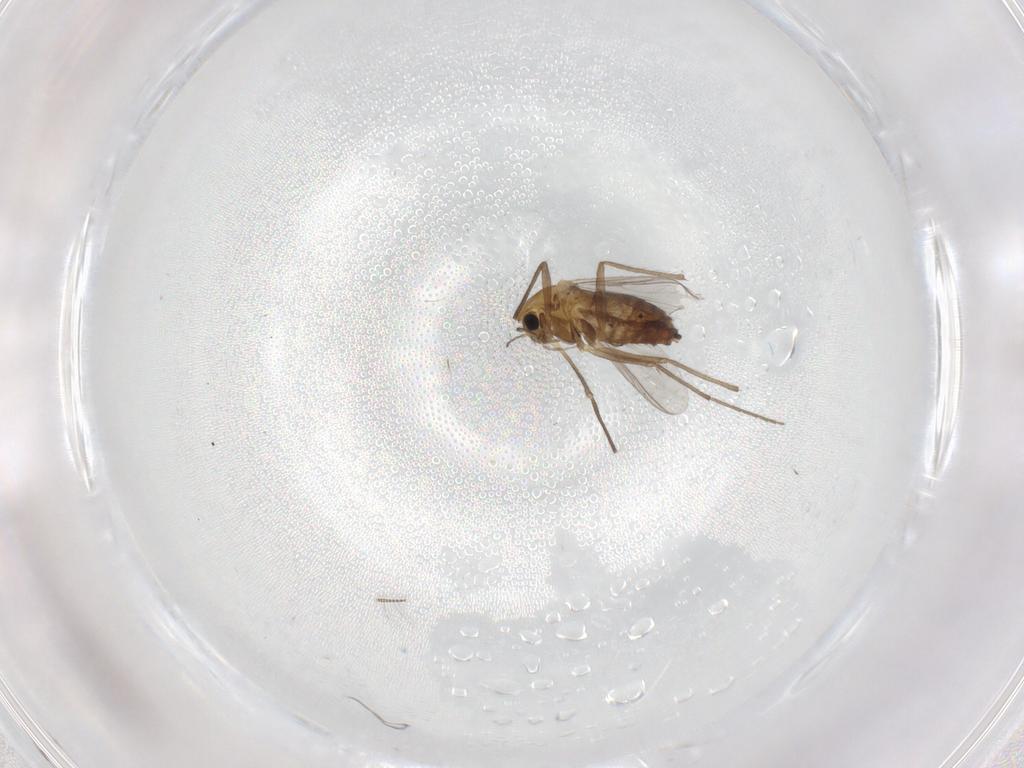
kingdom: Animalia
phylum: Arthropoda
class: Insecta
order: Diptera
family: Chironomidae
